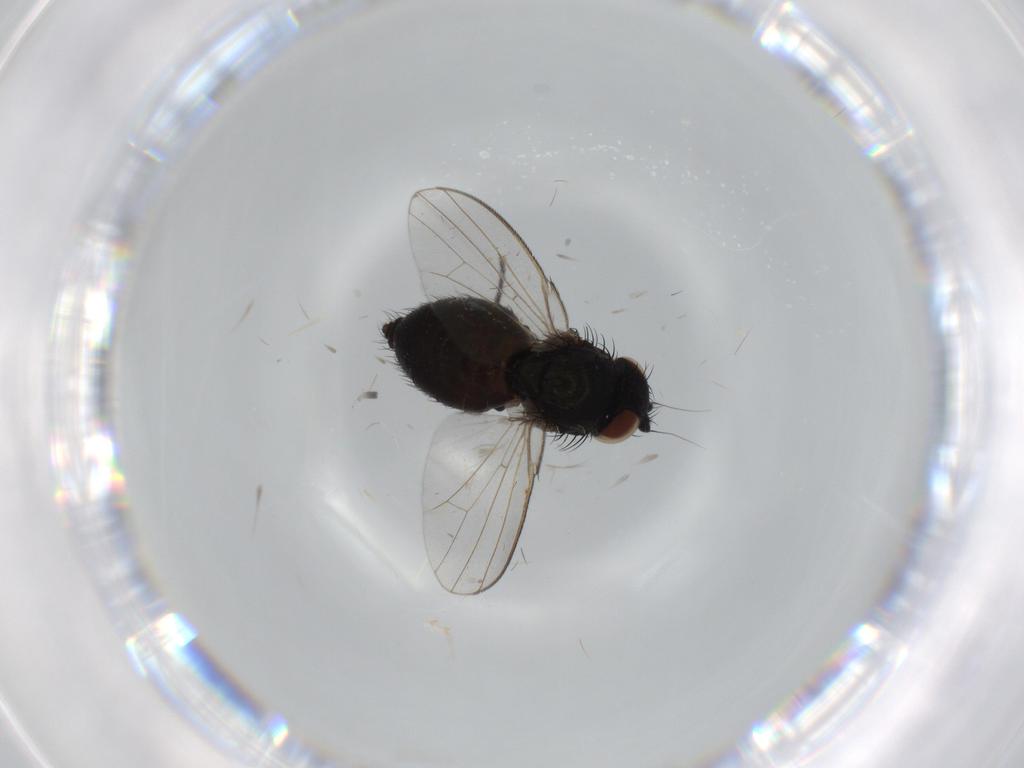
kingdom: Animalia
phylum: Arthropoda
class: Insecta
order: Diptera
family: Milichiidae
